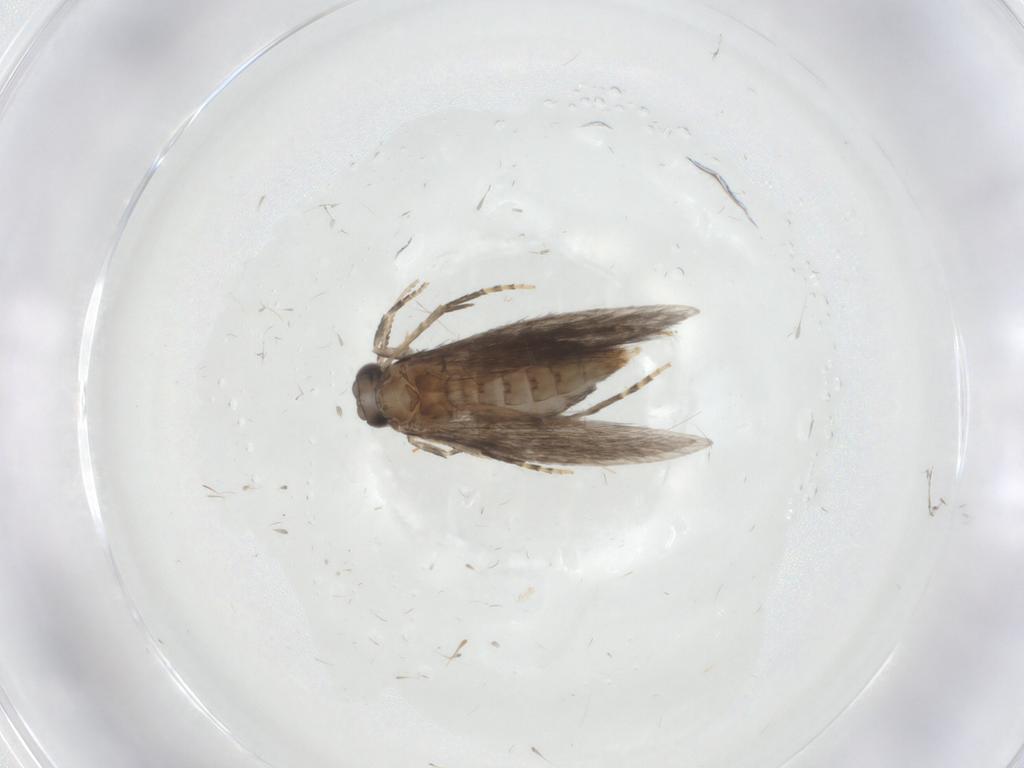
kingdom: Animalia
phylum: Arthropoda
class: Insecta
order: Trichoptera
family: Hydroptilidae
